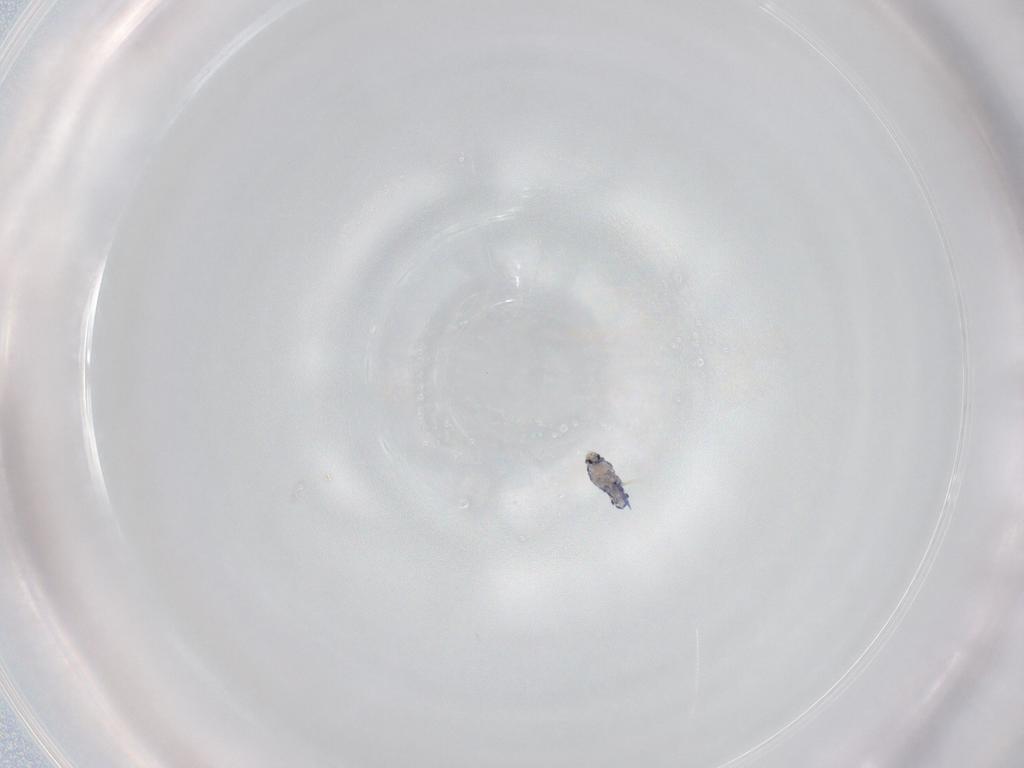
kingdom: Animalia
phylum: Arthropoda
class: Collembola
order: Entomobryomorpha
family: Entomobryidae
